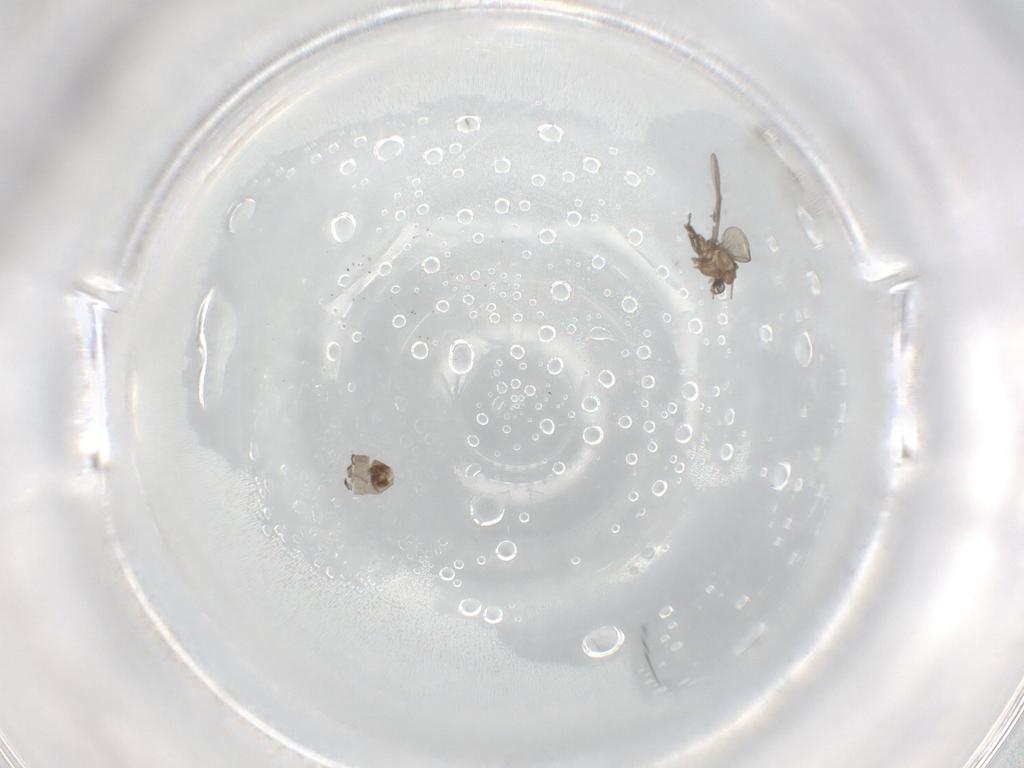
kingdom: Animalia
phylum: Arthropoda
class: Insecta
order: Diptera
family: Chironomidae
